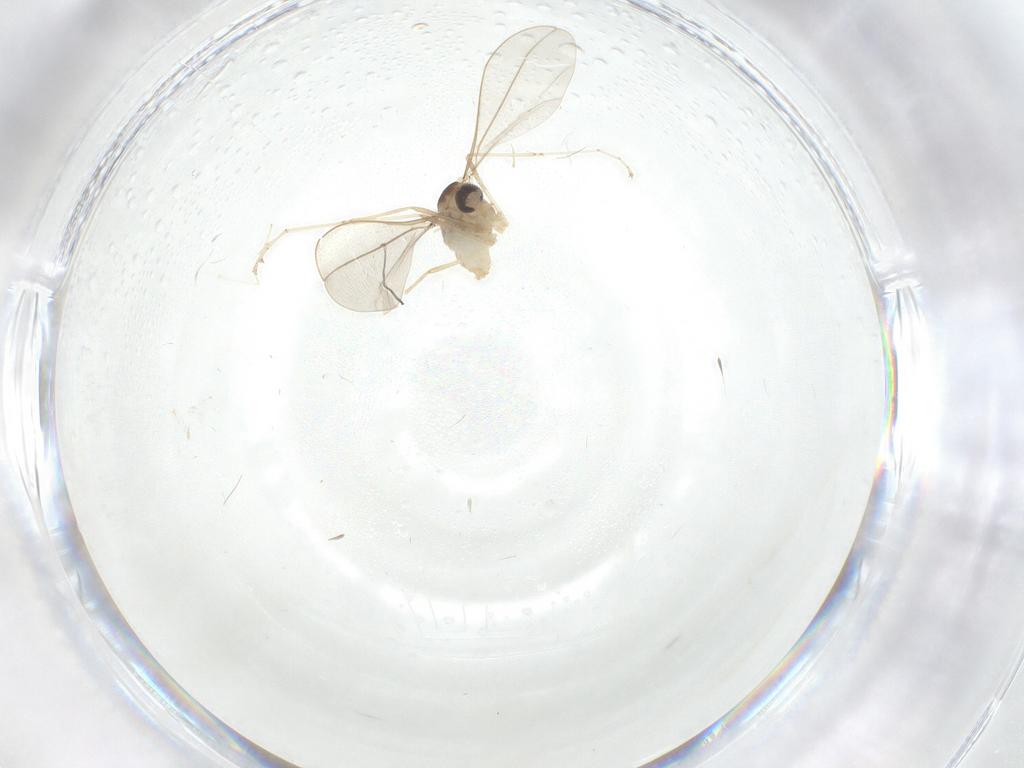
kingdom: Animalia
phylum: Arthropoda
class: Insecta
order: Diptera
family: Cecidomyiidae
